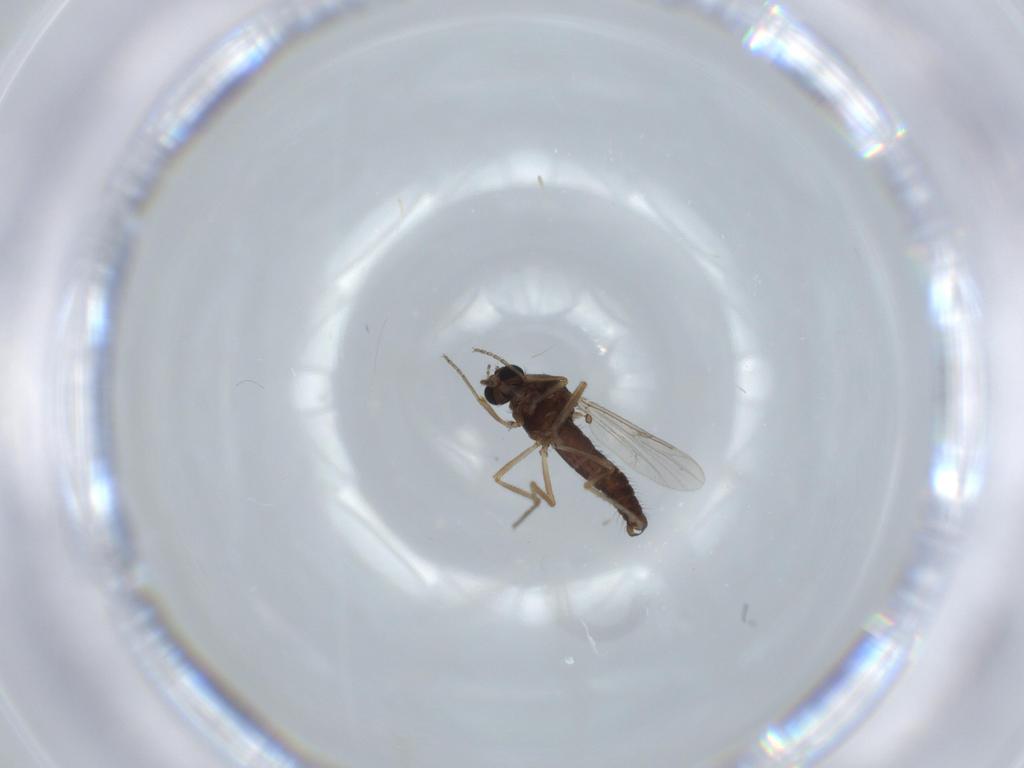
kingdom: Animalia
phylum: Arthropoda
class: Insecta
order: Diptera
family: Ceratopogonidae
